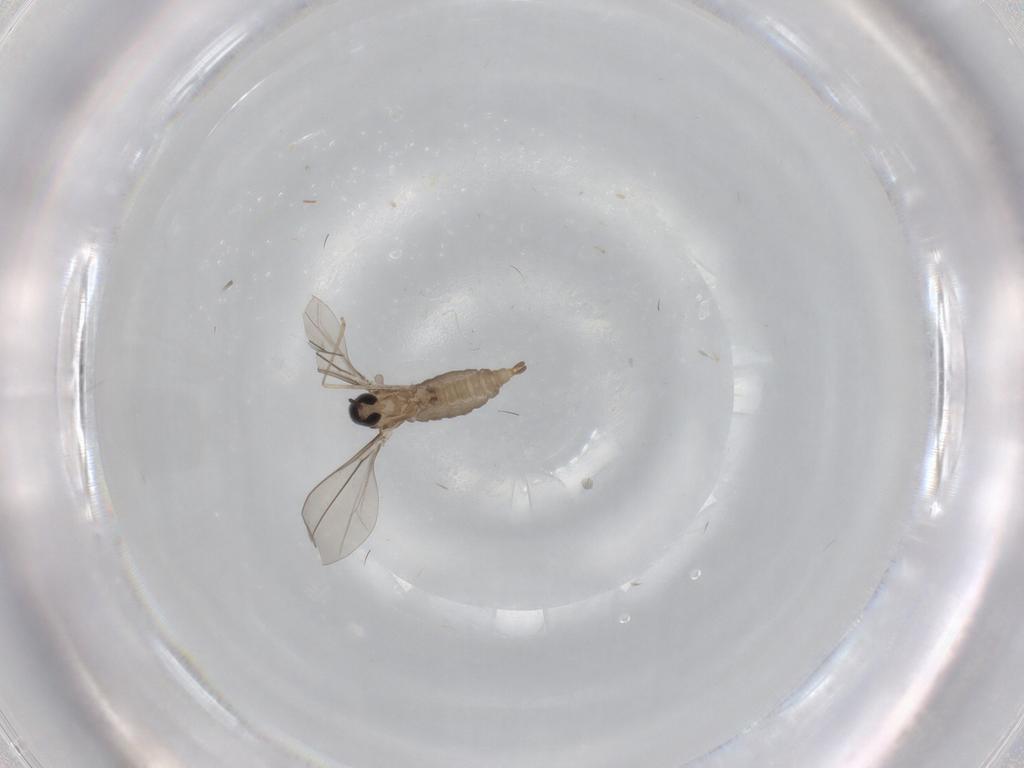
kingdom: Animalia
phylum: Arthropoda
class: Insecta
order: Diptera
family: Cecidomyiidae
